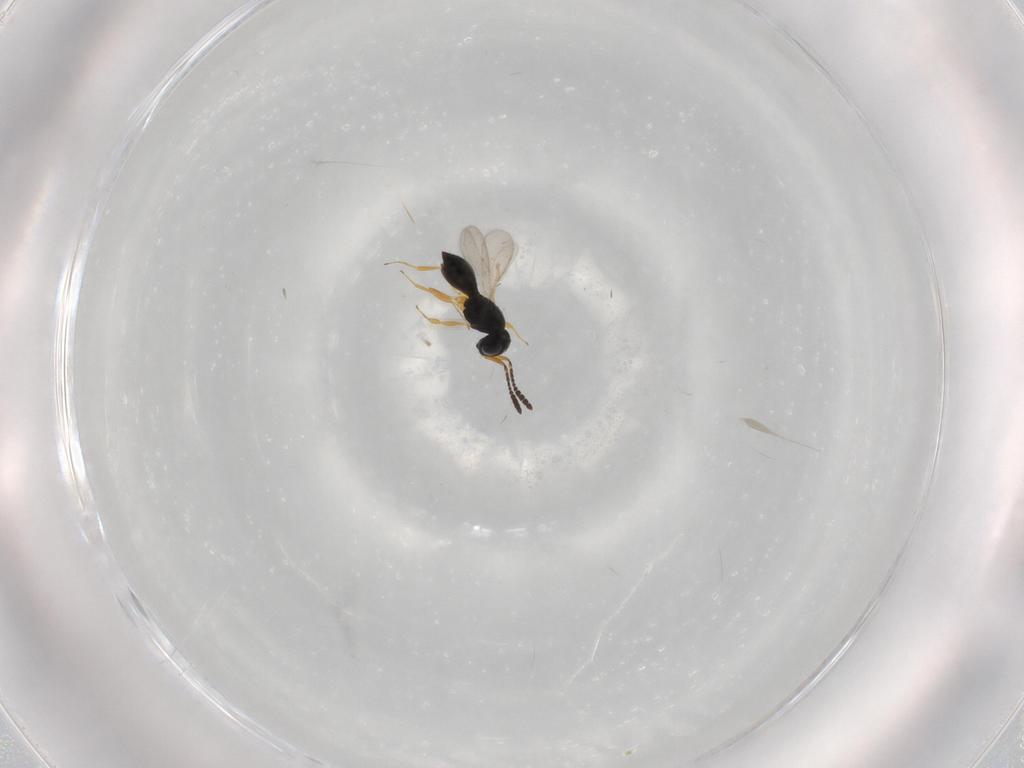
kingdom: Animalia
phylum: Arthropoda
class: Insecta
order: Hymenoptera
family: Scelionidae
